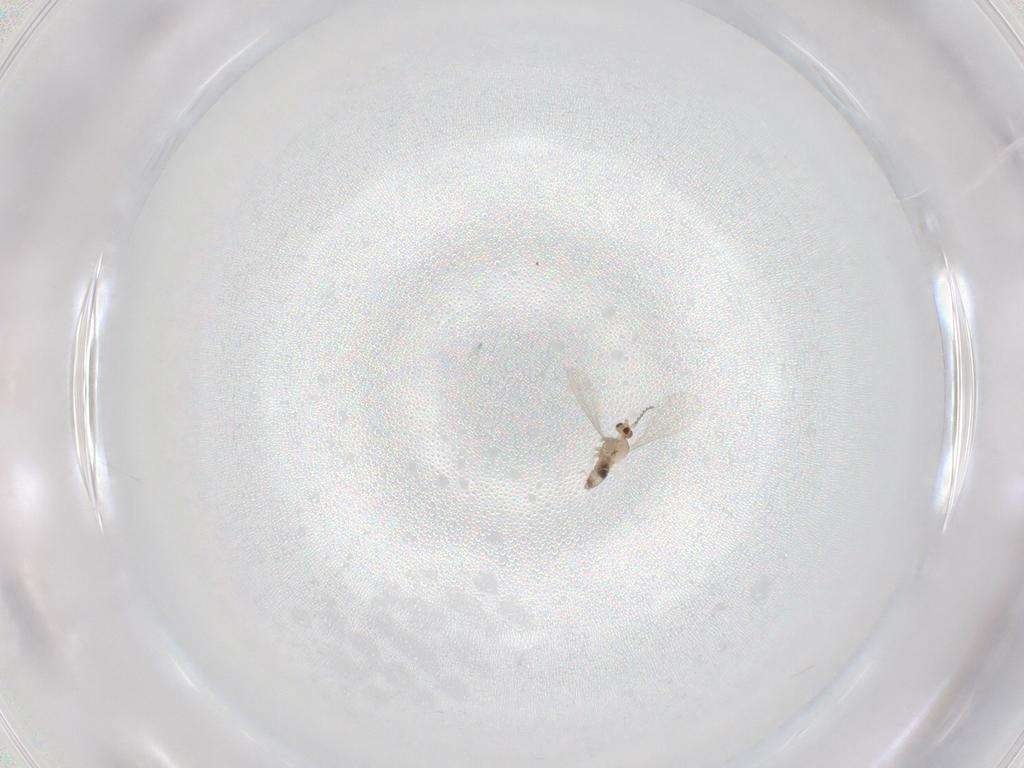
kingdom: Animalia
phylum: Arthropoda
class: Insecta
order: Diptera
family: Cecidomyiidae
